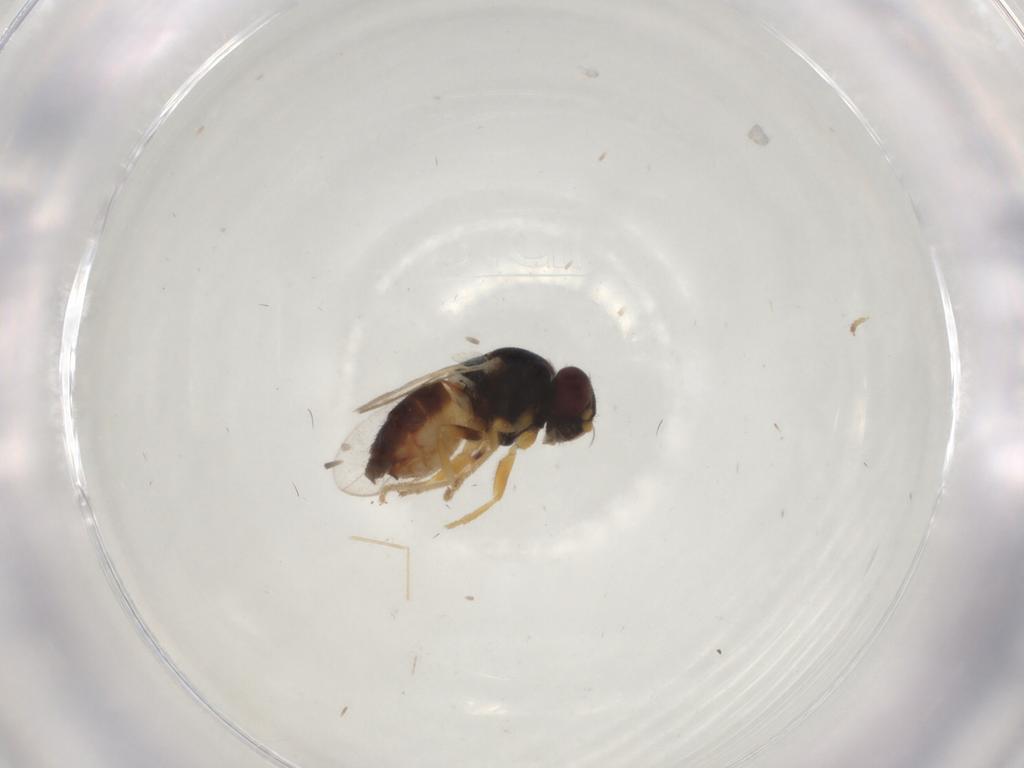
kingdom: Animalia
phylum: Arthropoda
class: Insecta
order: Diptera
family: Chloropidae
